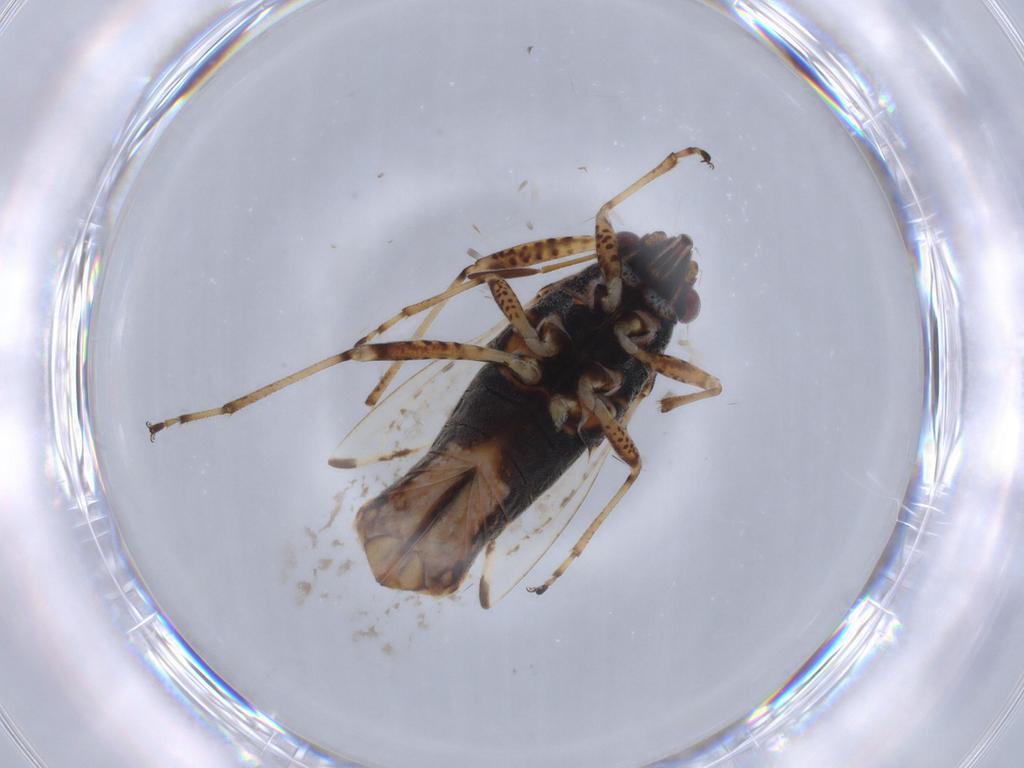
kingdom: Animalia
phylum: Arthropoda
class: Insecta
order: Hemiptera
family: Lygaeidae
